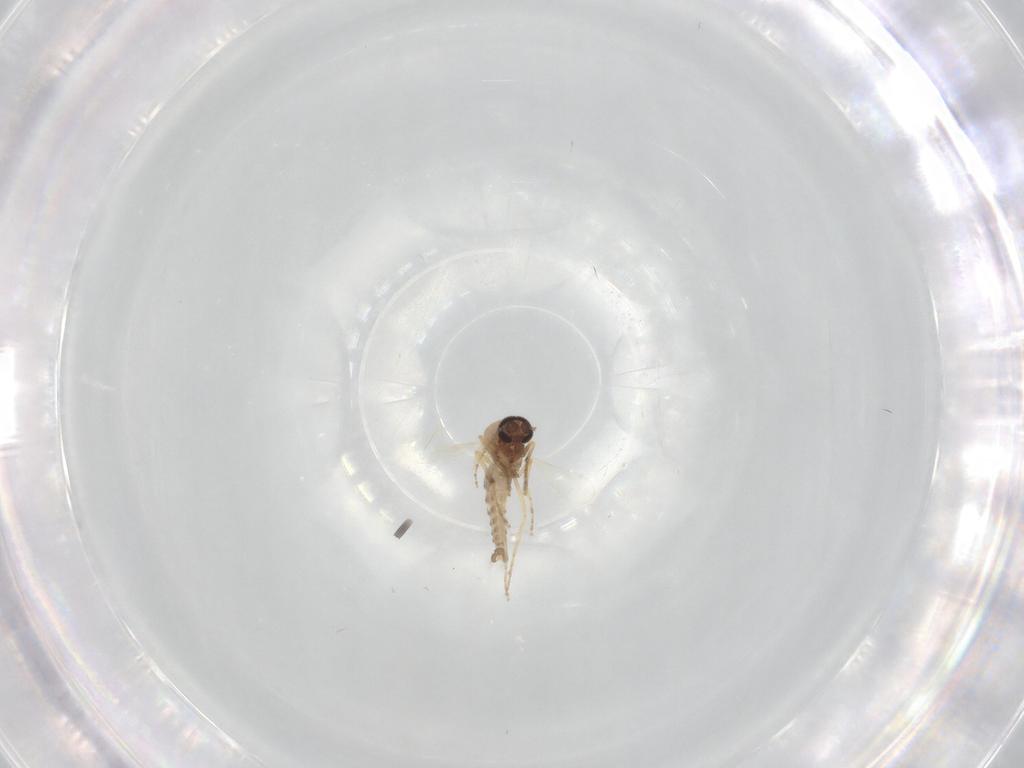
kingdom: Animalia
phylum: Arthropoda
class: Insecta
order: Diptera
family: Ceratopogonidae
